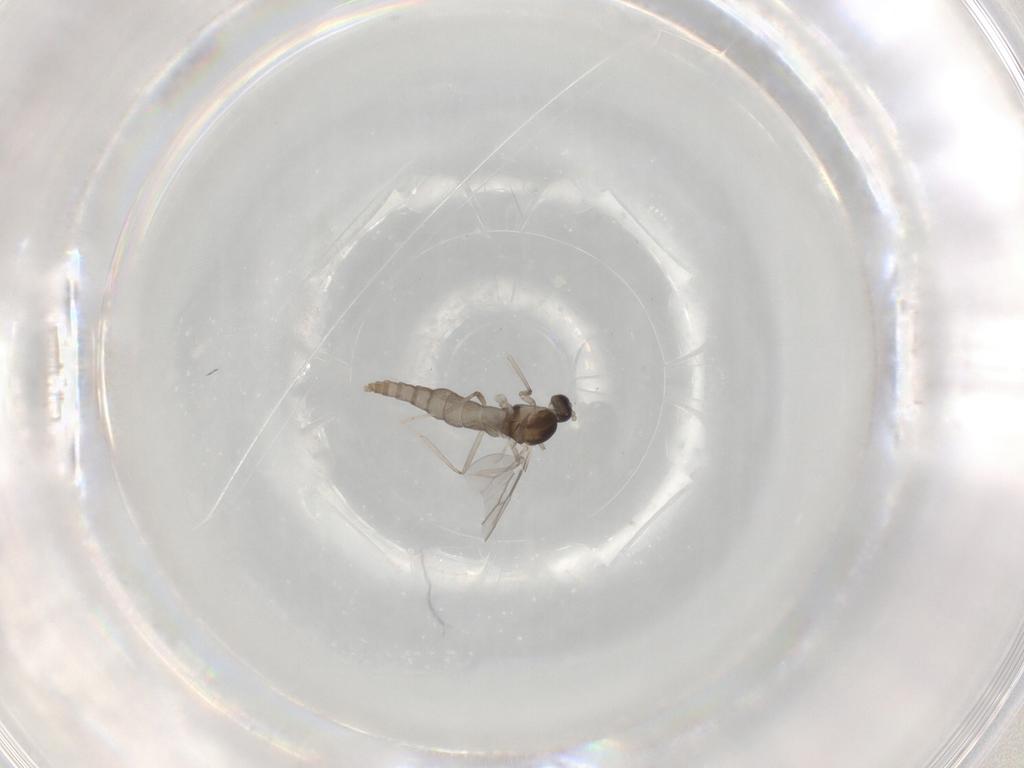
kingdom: Animalia
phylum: Arthropoda
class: Insecta
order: Diptera
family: Cecidomyiidae
